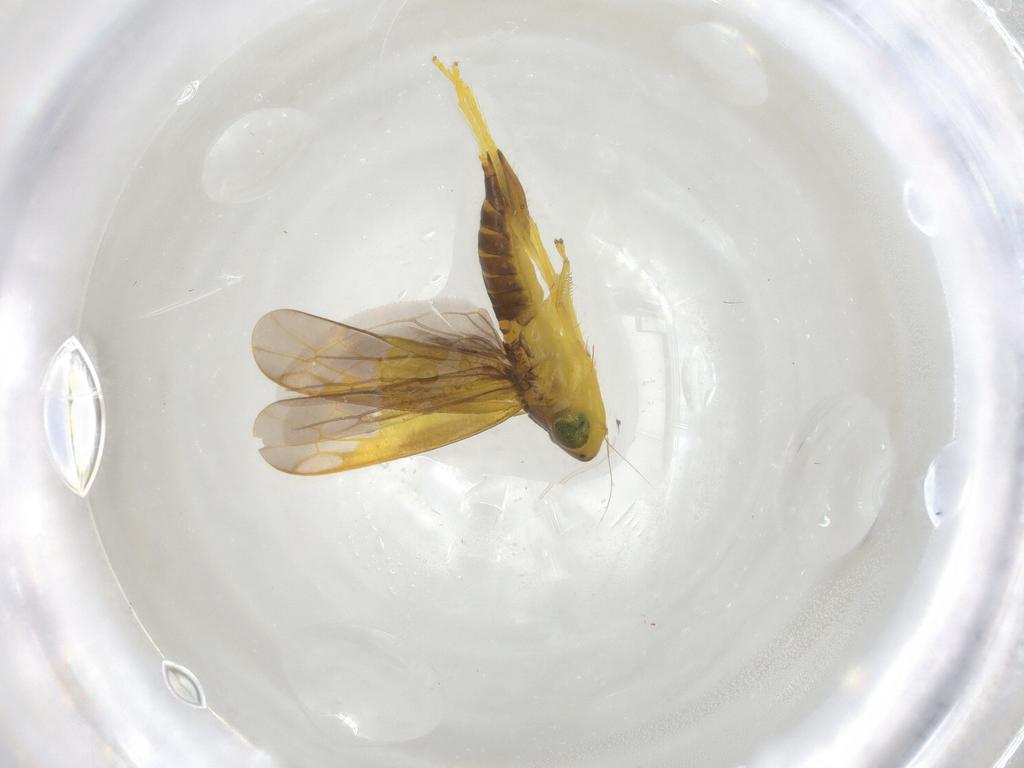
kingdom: Animalia
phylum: Arthropoda
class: Insecta
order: Hemiptera
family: Cicadellidae
